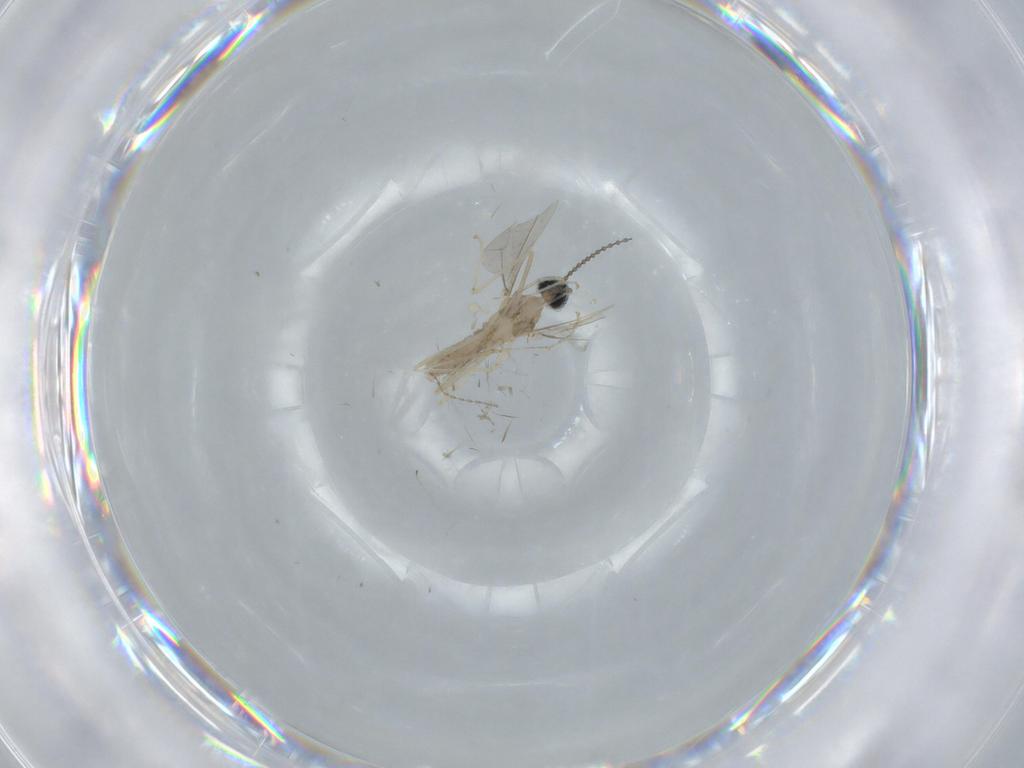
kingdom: Animalia
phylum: Arthropoda
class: Insecta
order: Diptera
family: Cecidomyiidae
